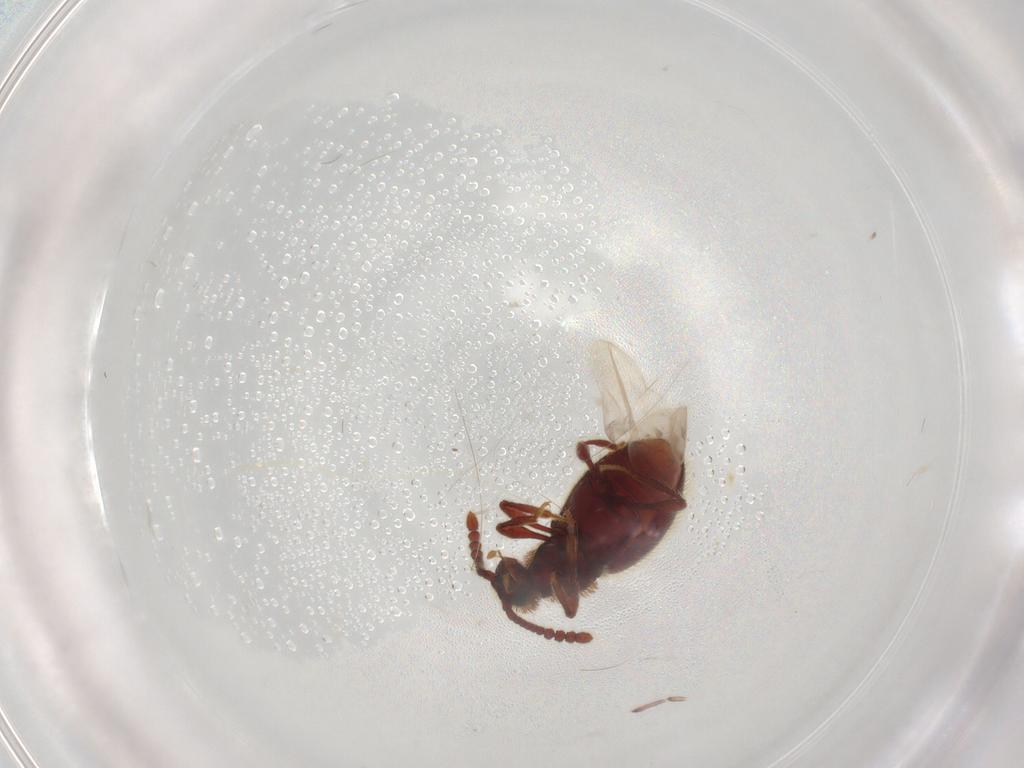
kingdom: Animalia
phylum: Arthropoda
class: Insecta
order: Coleoptera
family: Staphylinidae
